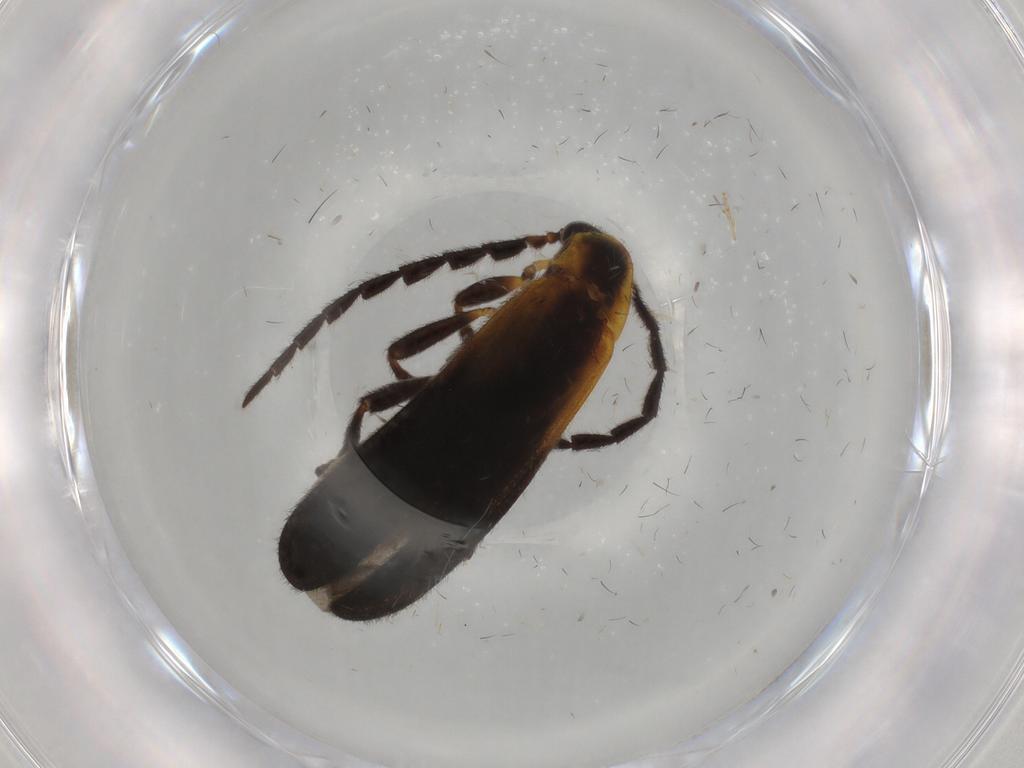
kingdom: Animalia
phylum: Arthropoda
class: Insecta
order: Coleoptera
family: Lycidae
